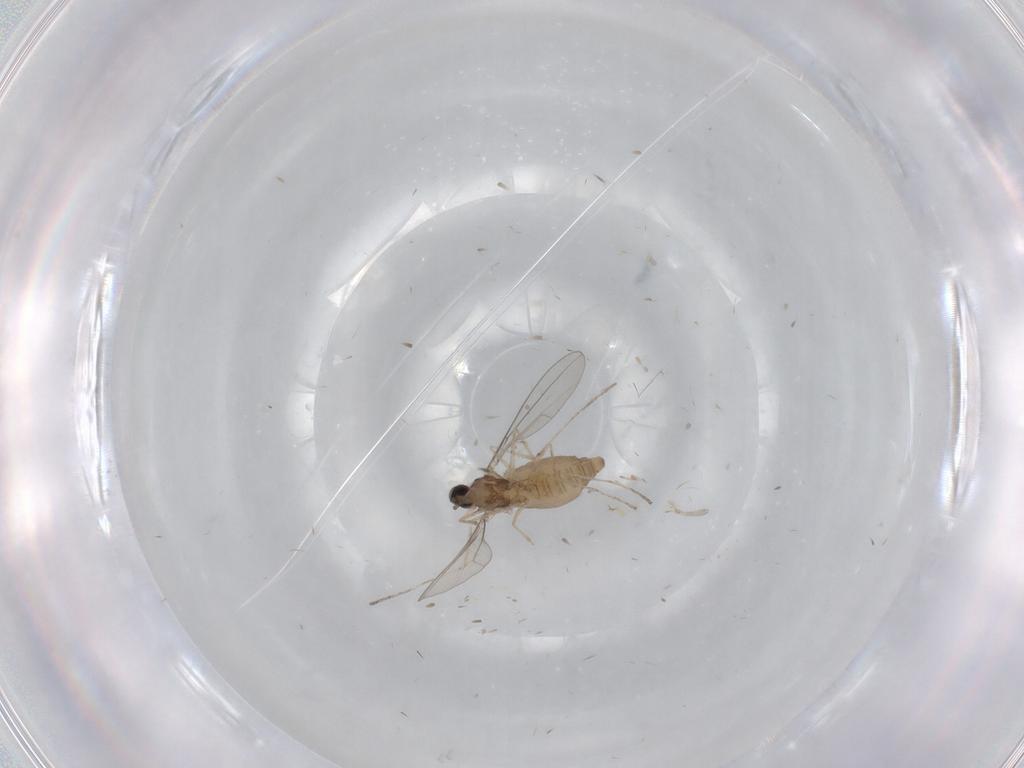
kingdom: Animalia
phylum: Arthropoda
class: Insecta
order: Diptera
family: Cecidomyiidae
